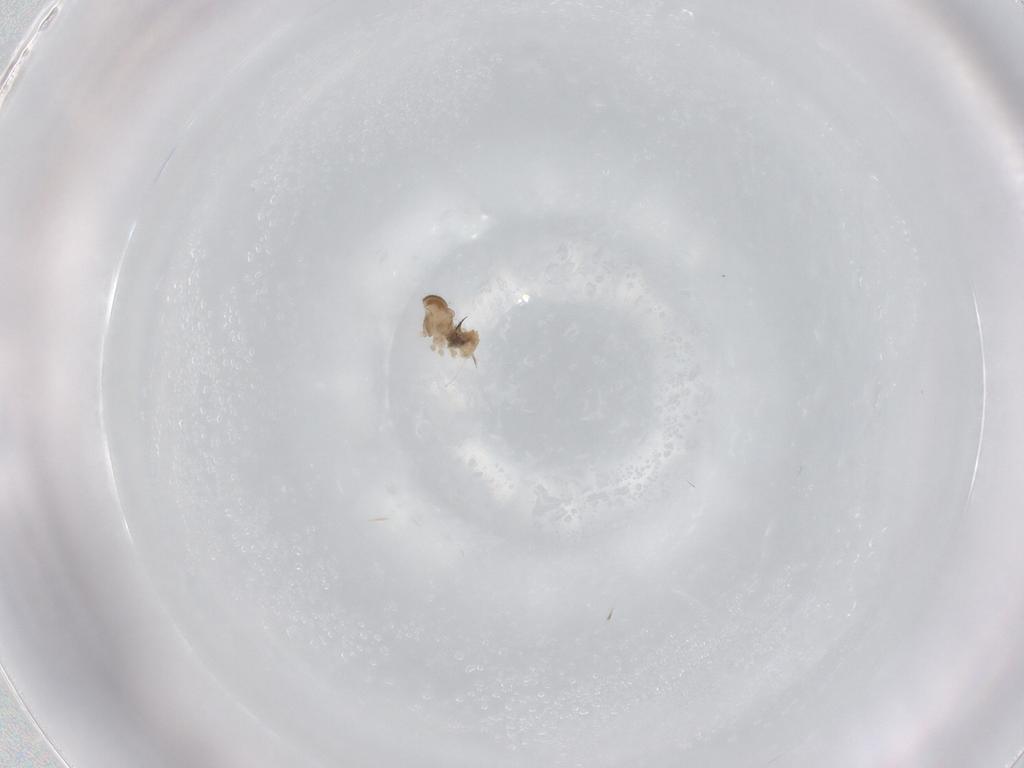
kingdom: Animalia
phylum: Arthropoda
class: Insecta
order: Diptera
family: Cecidomyiidae
